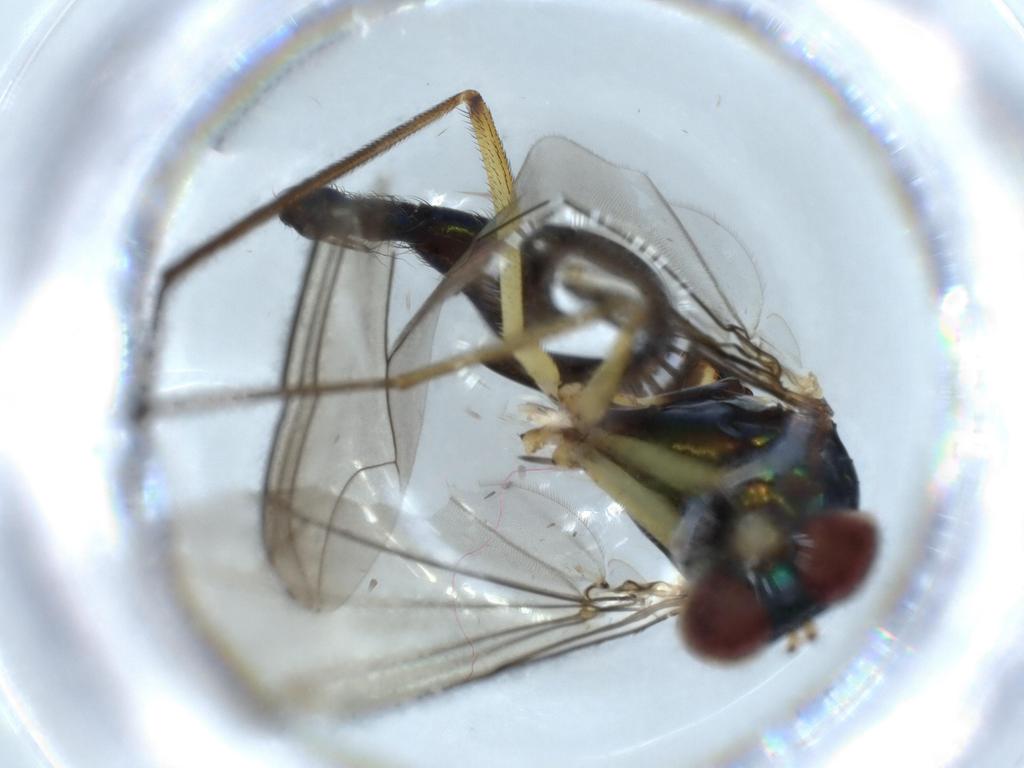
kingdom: Animalia
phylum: Arthropoda
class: Insecta
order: Diptera
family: Dolichopodidae
